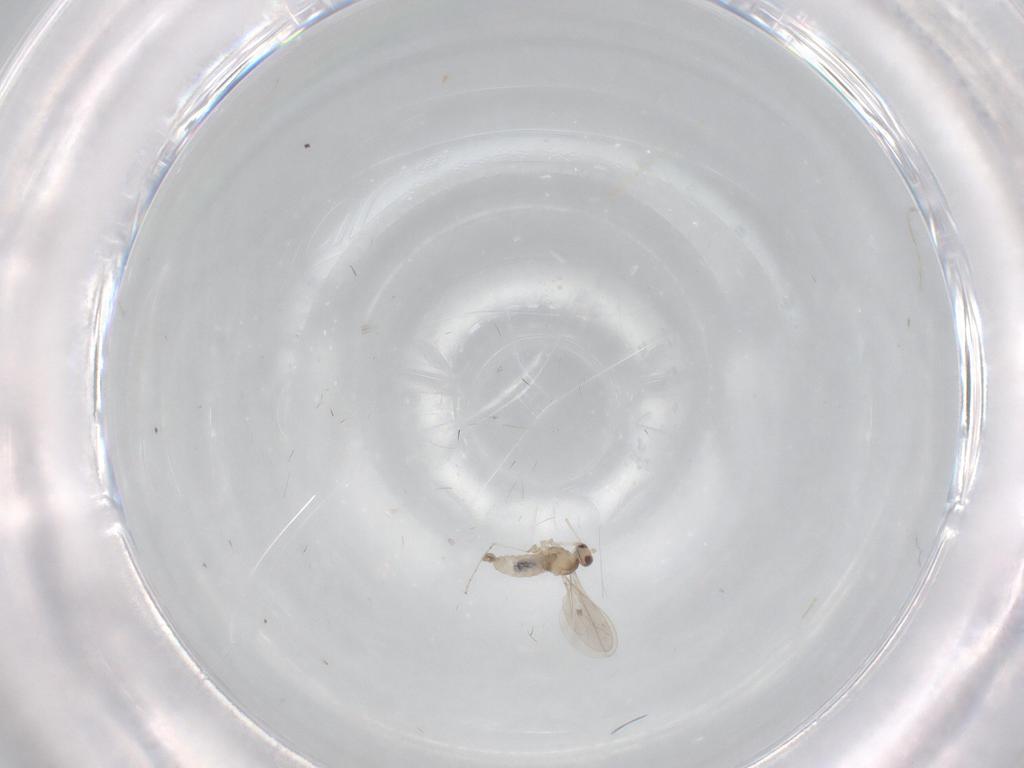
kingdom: Animalia
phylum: Arthropoda
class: Insecta
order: Diptera
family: Cecidomyiidae
